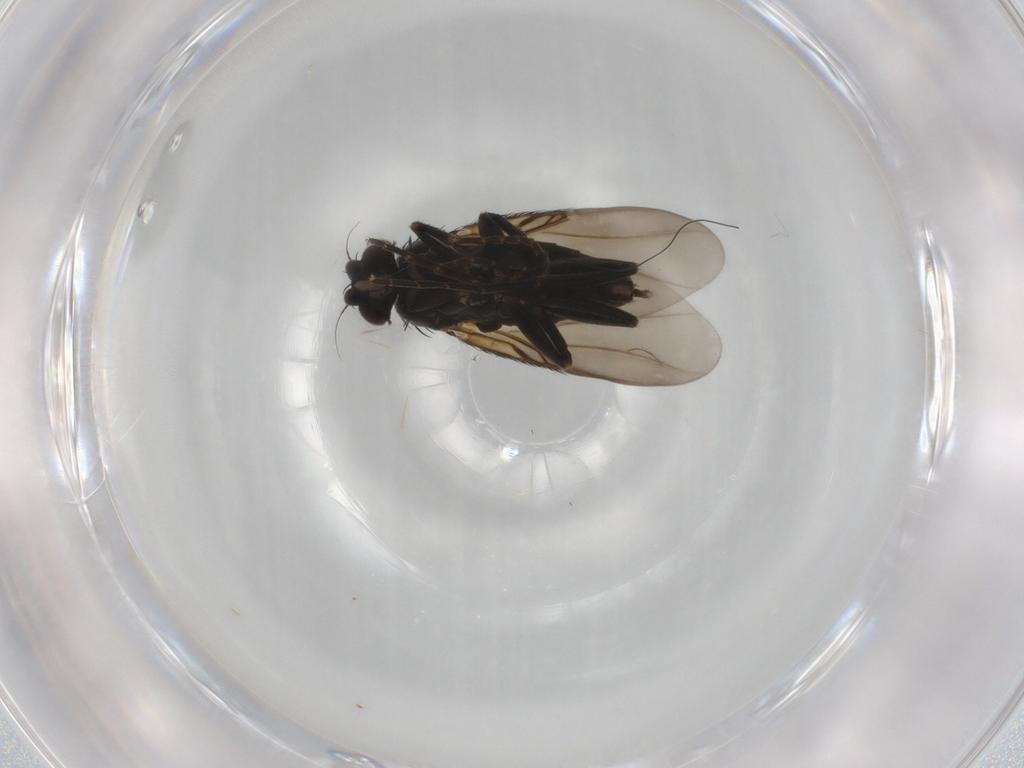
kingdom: Animalia
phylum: Arthropoda
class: Insecta
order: Diptera
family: Phoridae
